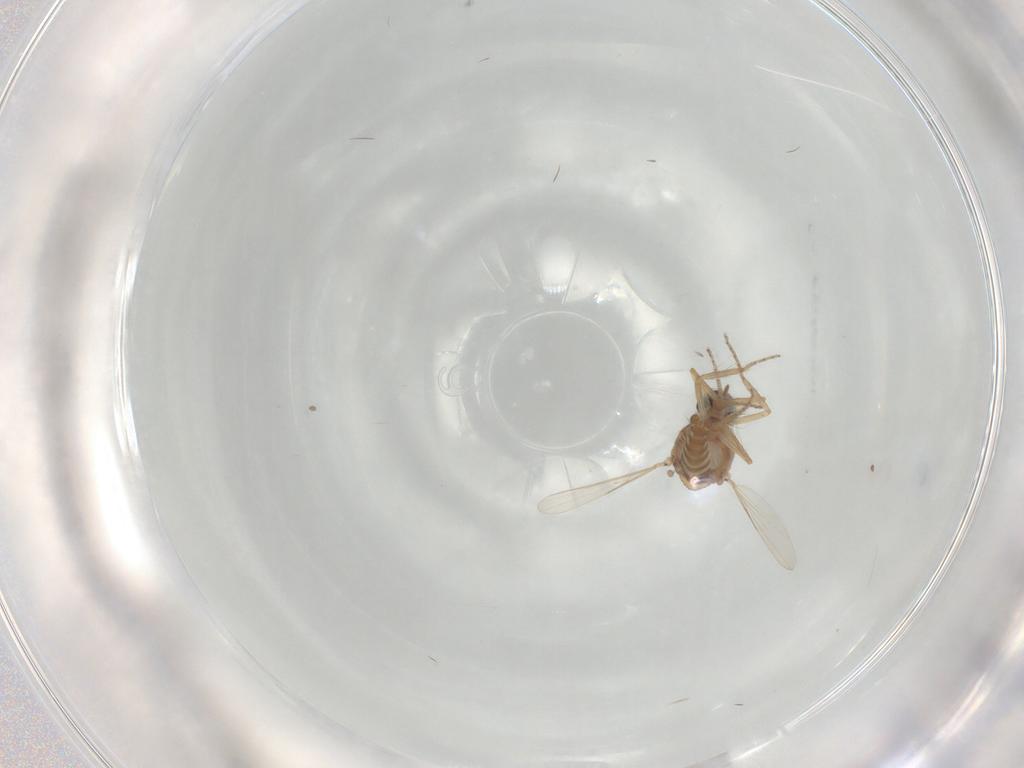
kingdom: Animalia
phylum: Arthropoda
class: Insecta
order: Diptera
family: Ceratopogonidae
